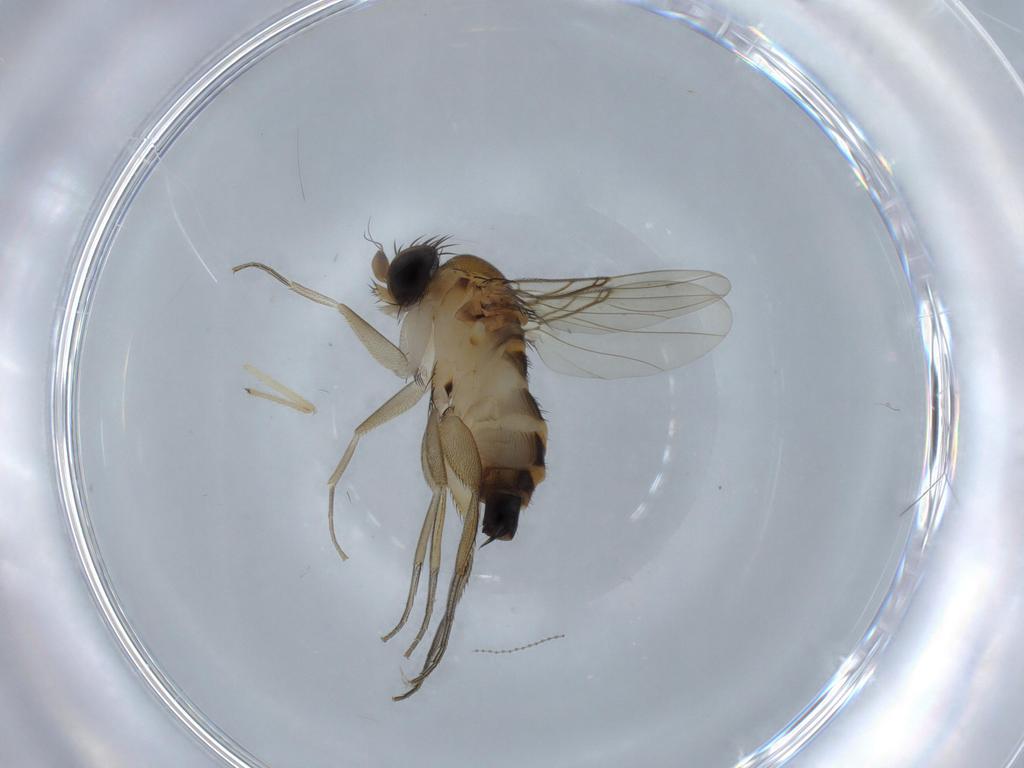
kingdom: Animalia
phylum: Arthropoda
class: Insecta
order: Diptera
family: Phoridae
